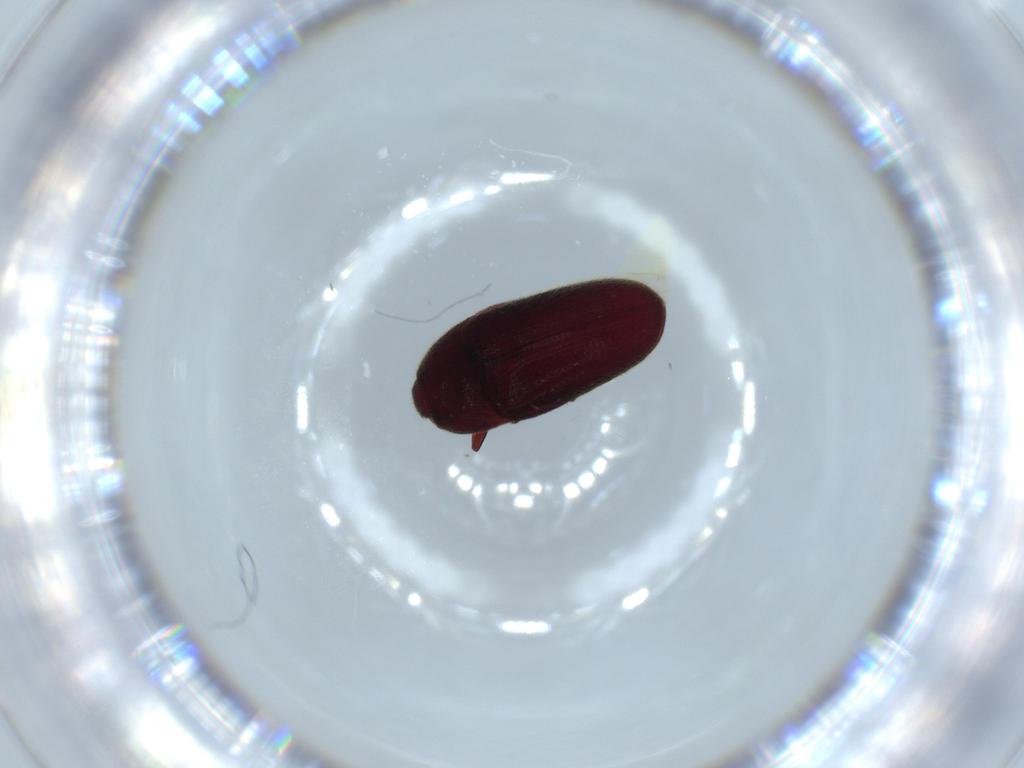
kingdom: Animalia
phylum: Arthropoda
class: Insecta
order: Coleoptera
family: Throscidae
